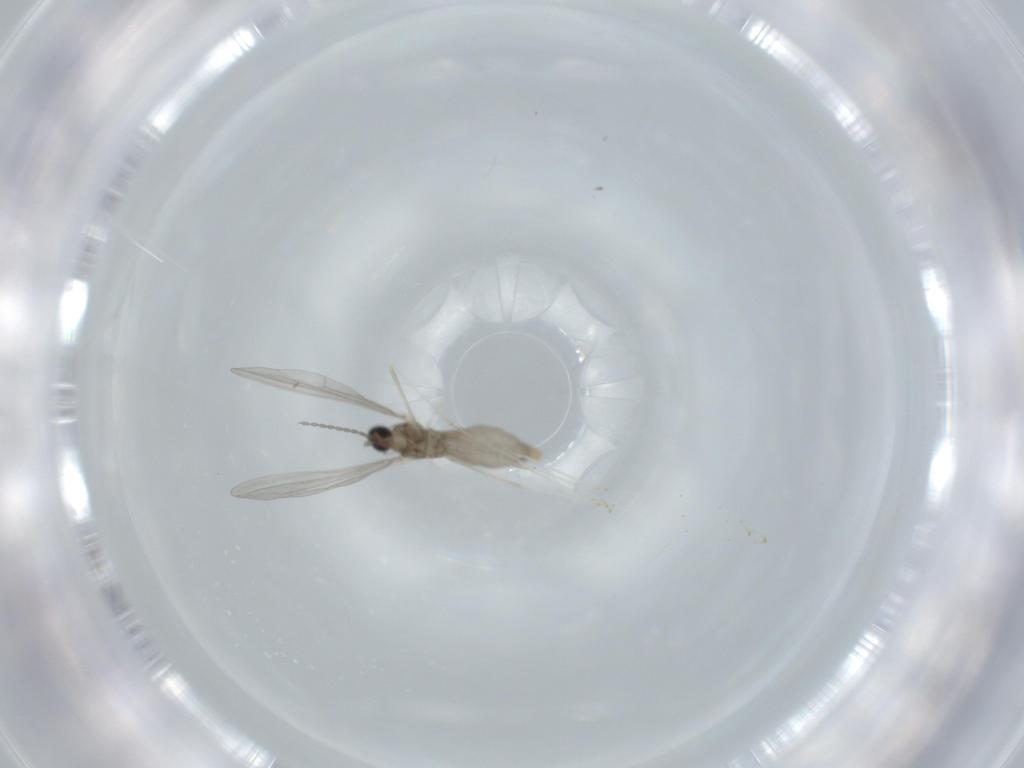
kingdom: Animalia
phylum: Arthropoda
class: Insecta
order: Diptera
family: Cecidomyiidae
